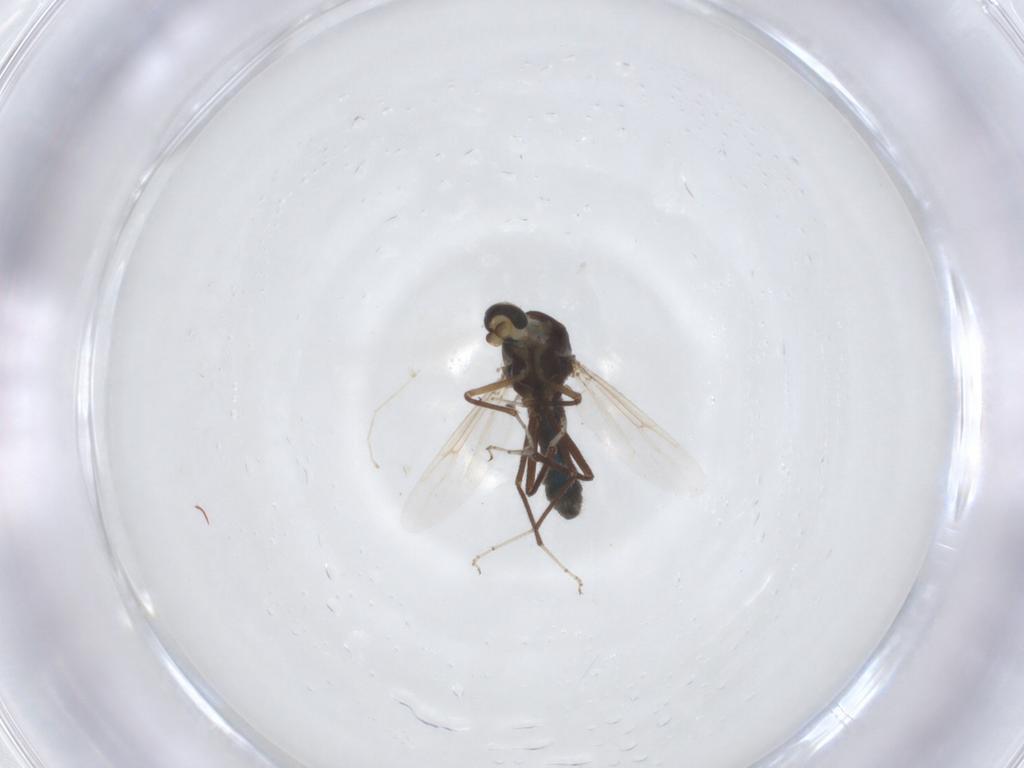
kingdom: Animalia
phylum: Arthropoda
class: Insecta
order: Diptera
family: Ceratopogonidae
